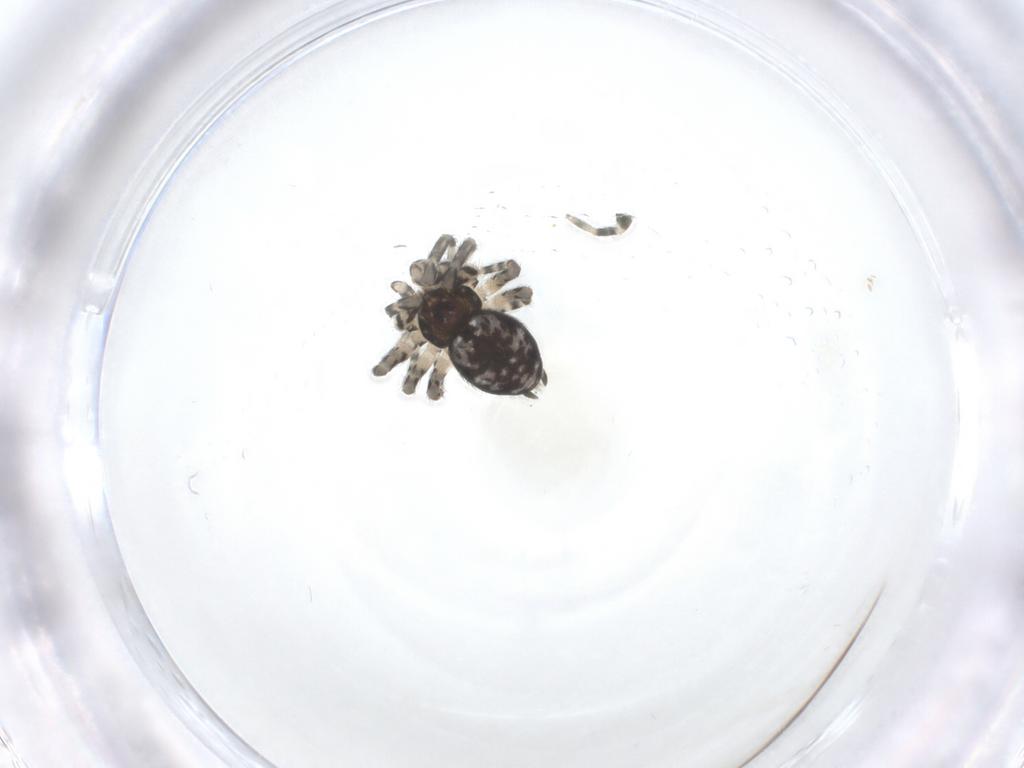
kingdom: Animalia
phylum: Arthropoda
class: Arachnida
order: Araneae
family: Oecobiidae
